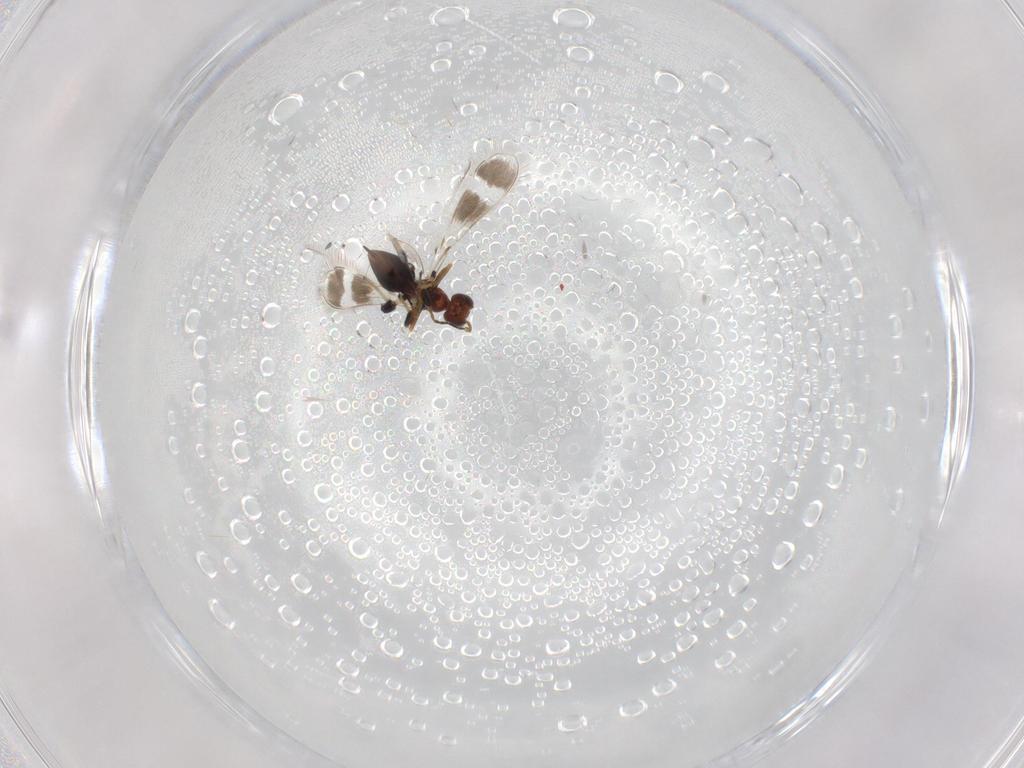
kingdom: Animalia
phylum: Arthropoda
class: Insecta
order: Hymenoptera
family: Mymaridae
